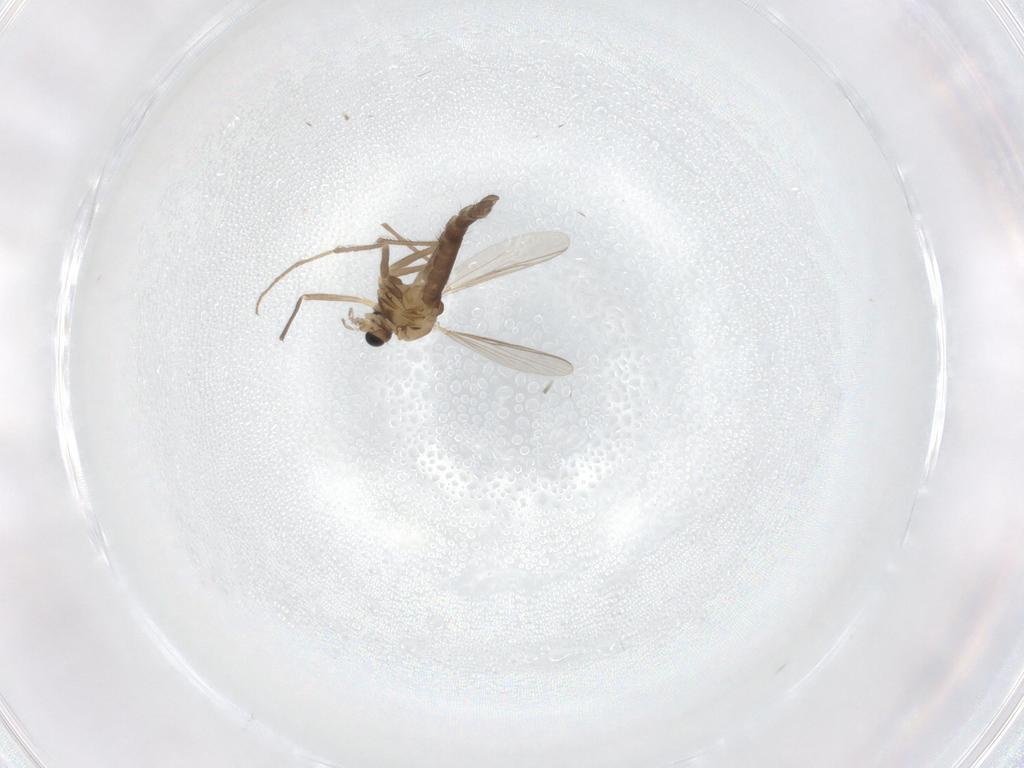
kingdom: Animalia
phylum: Arthropoda
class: Insecta
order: Diptera
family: Chironomidae
